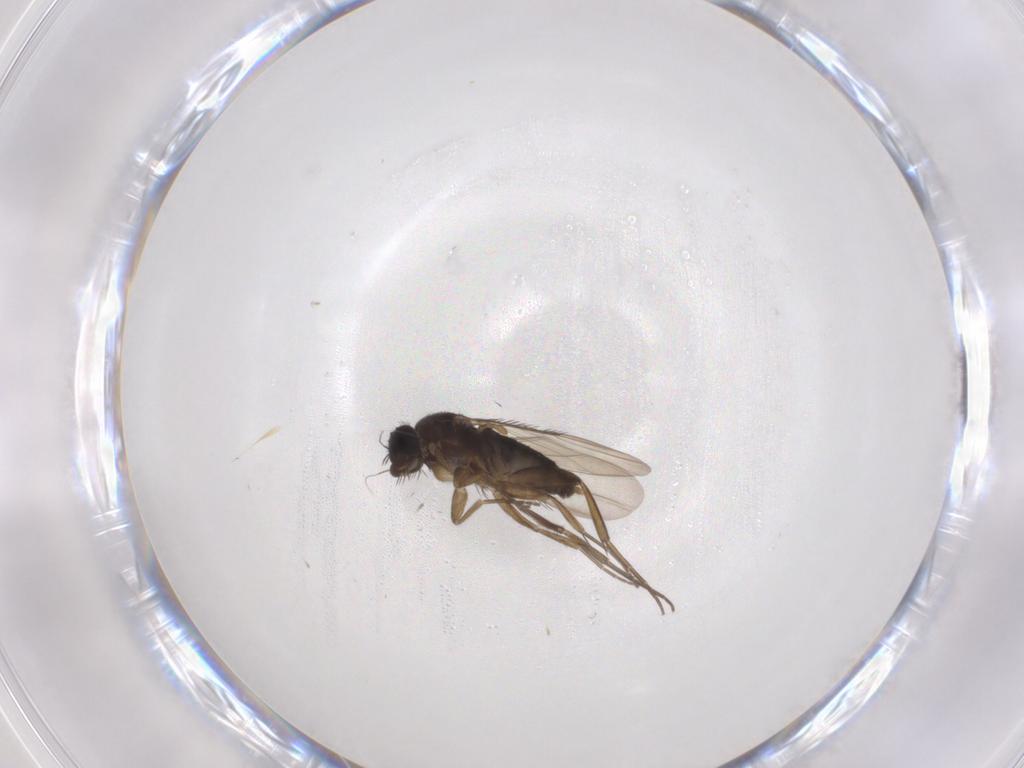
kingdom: Animalia
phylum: Arthropoda
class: Insecta
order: Diptera
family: Phoridae
